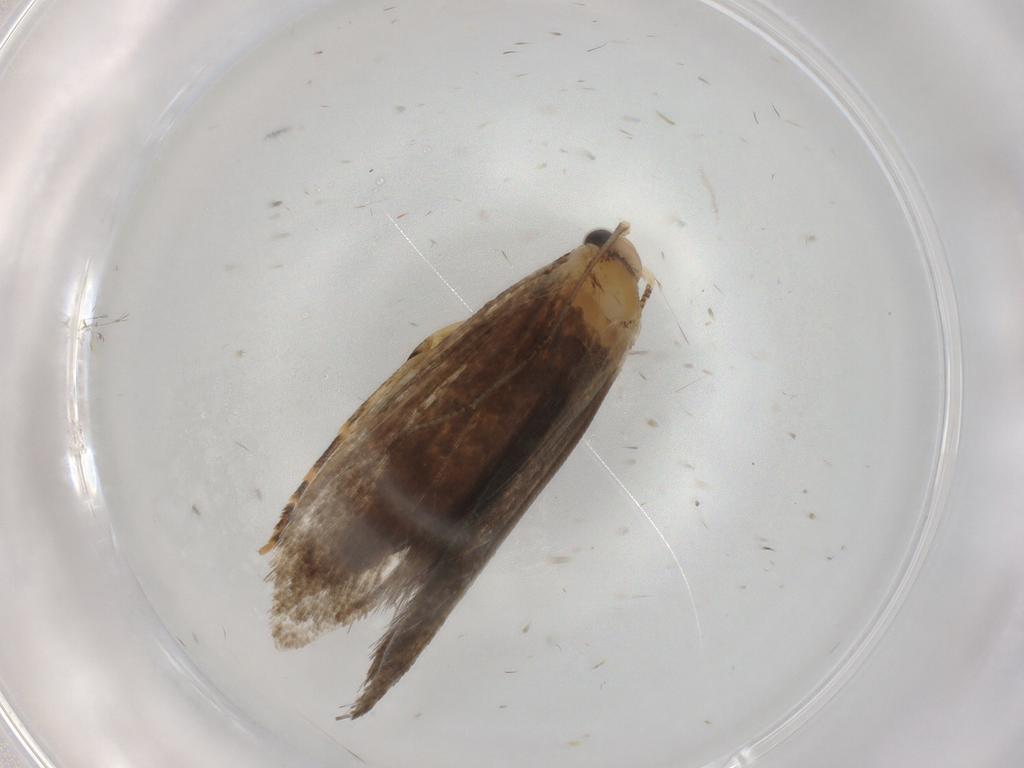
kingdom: Animalia
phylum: Arthropoda
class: Insecta
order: Lepidoptera
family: Tineidae
